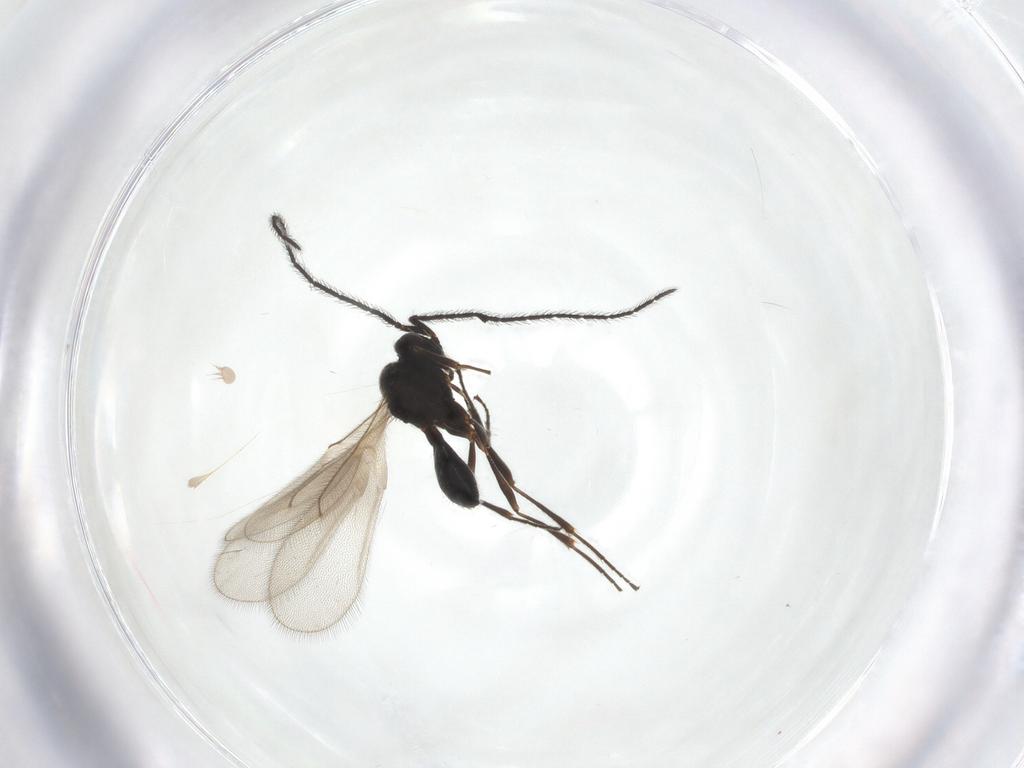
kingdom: Animalia
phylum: Arthropoda
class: Insecta
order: Hymenoptera
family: Scelionidae
